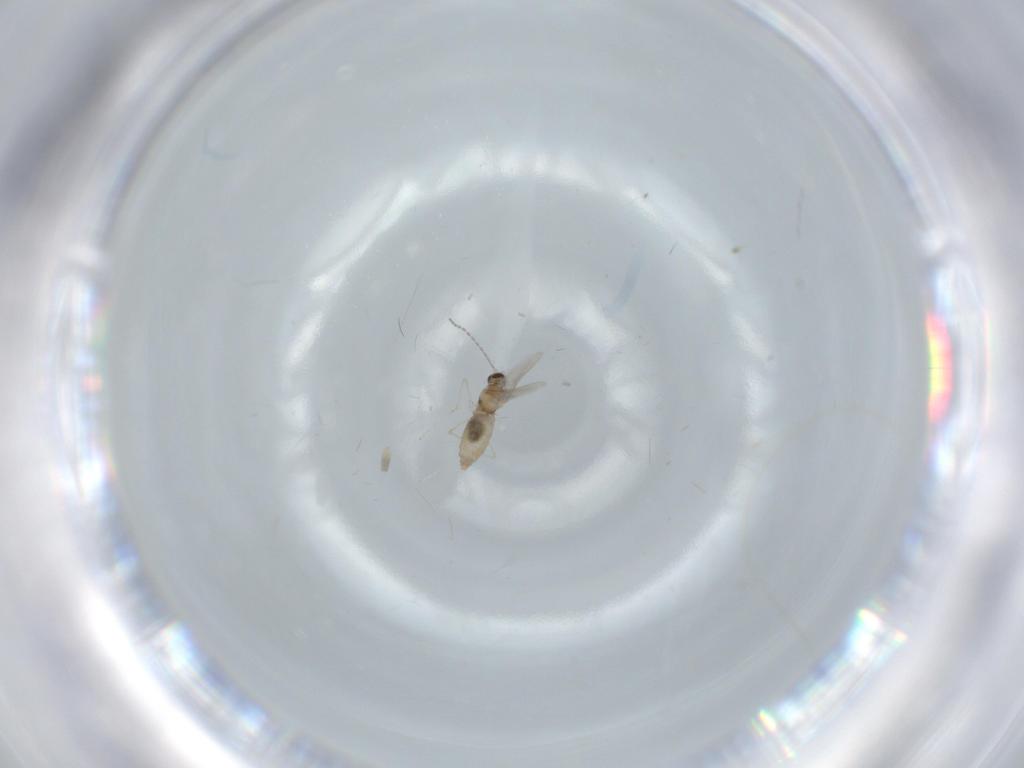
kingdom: Animalia
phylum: Arthropoda
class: Insecta
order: Diptera
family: Cecidomyiidae
